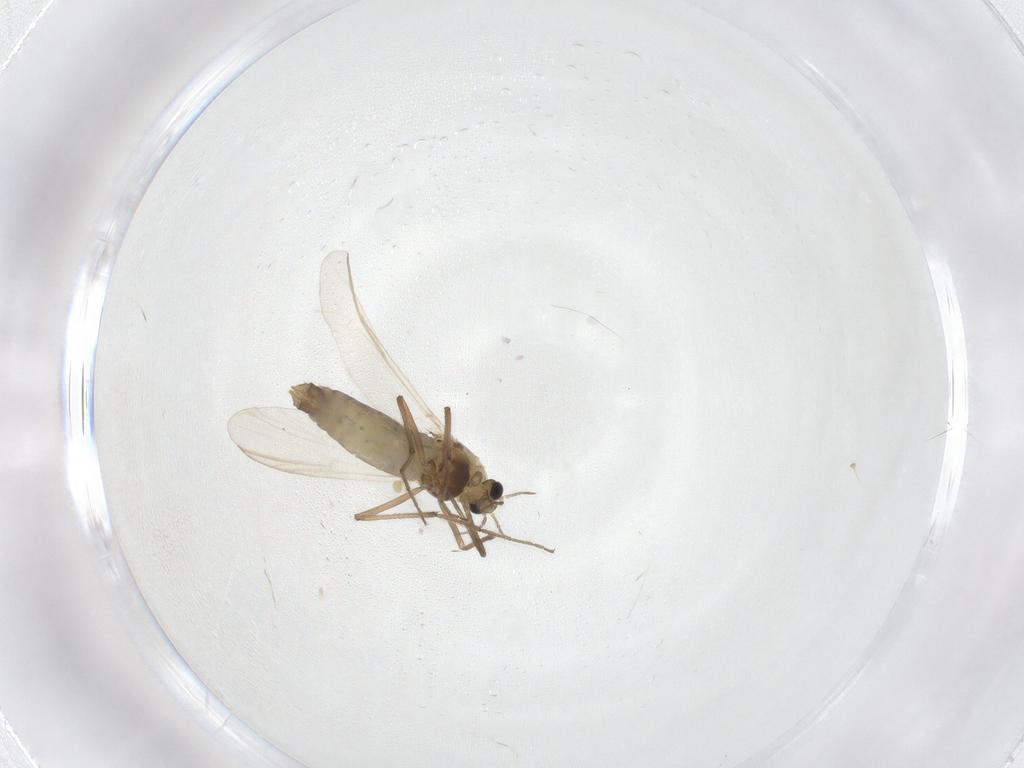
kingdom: Animalia
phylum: Arthropoda
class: Insecta
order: Diptera
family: Chironomidae
